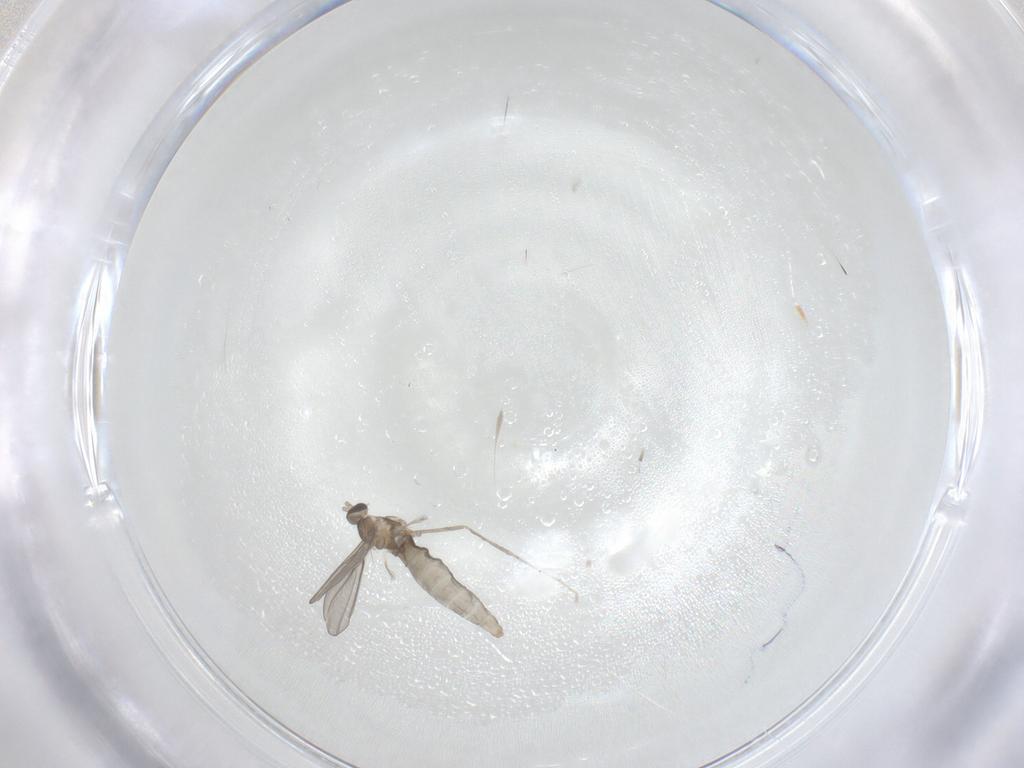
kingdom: Animalia
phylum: Arthropoda
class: Insecta
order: Diptera
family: Cecidomyiidae
